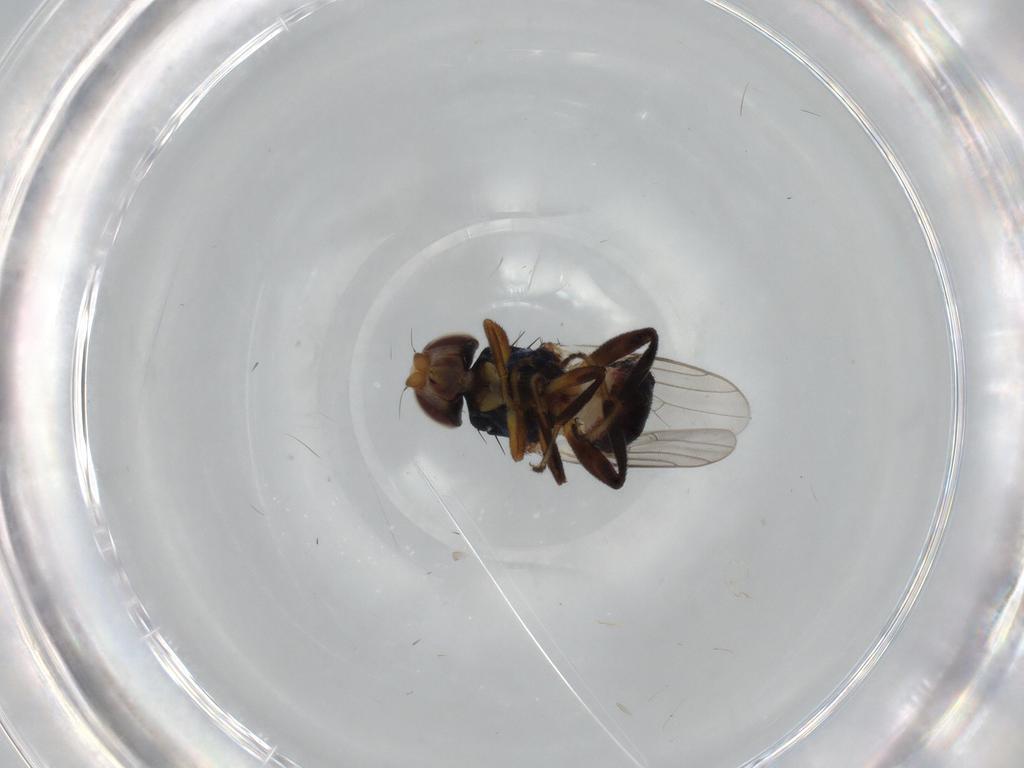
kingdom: Animalia
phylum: Arthropoda
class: Insecta
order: Diptera
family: Chloropidae
